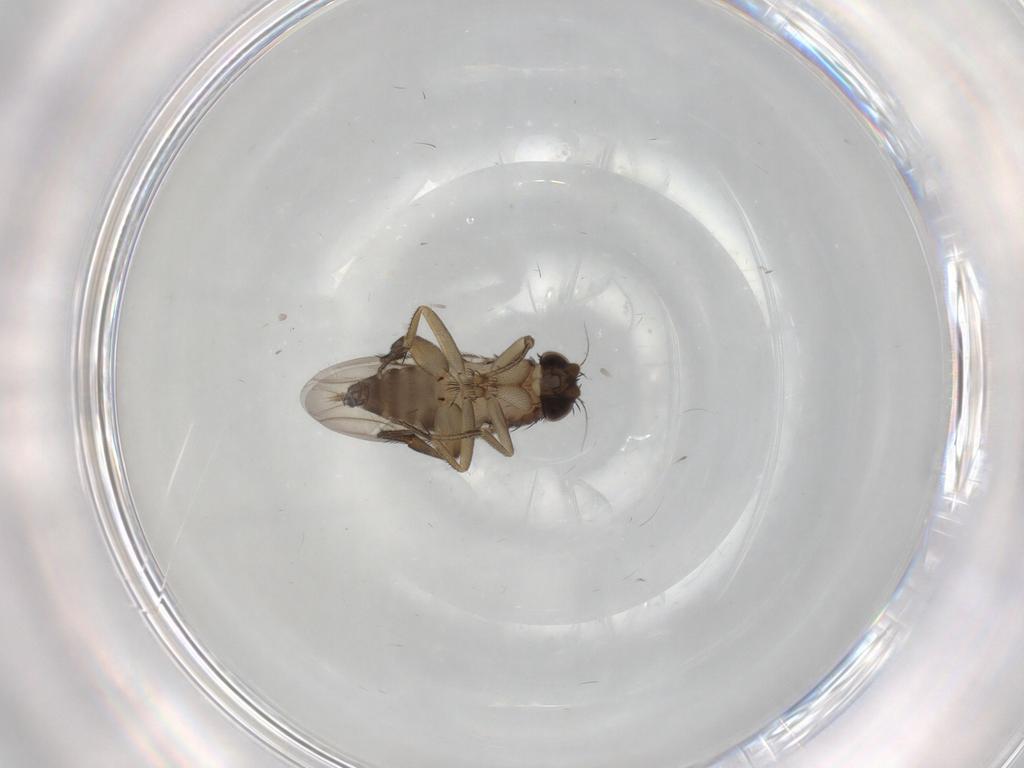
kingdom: Animalia
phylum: Arthropoda
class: Insecta
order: Diptera
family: Phoridae
